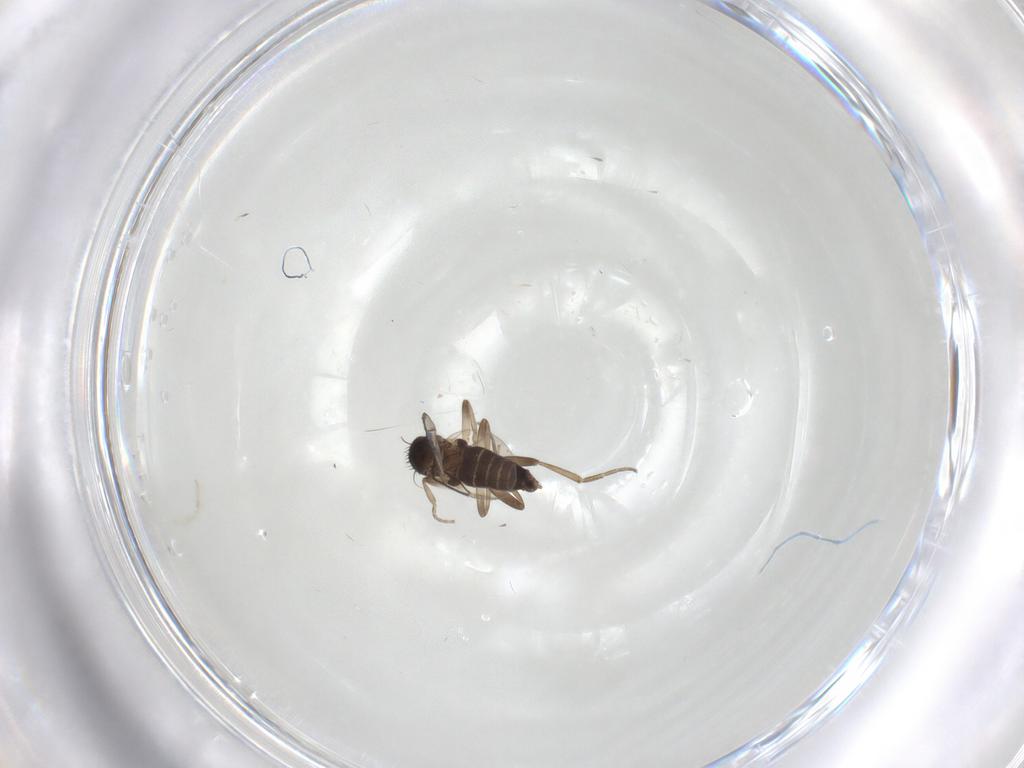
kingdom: Animalia
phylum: Arthropoda
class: Insecta
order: Diptera
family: Phoridae
